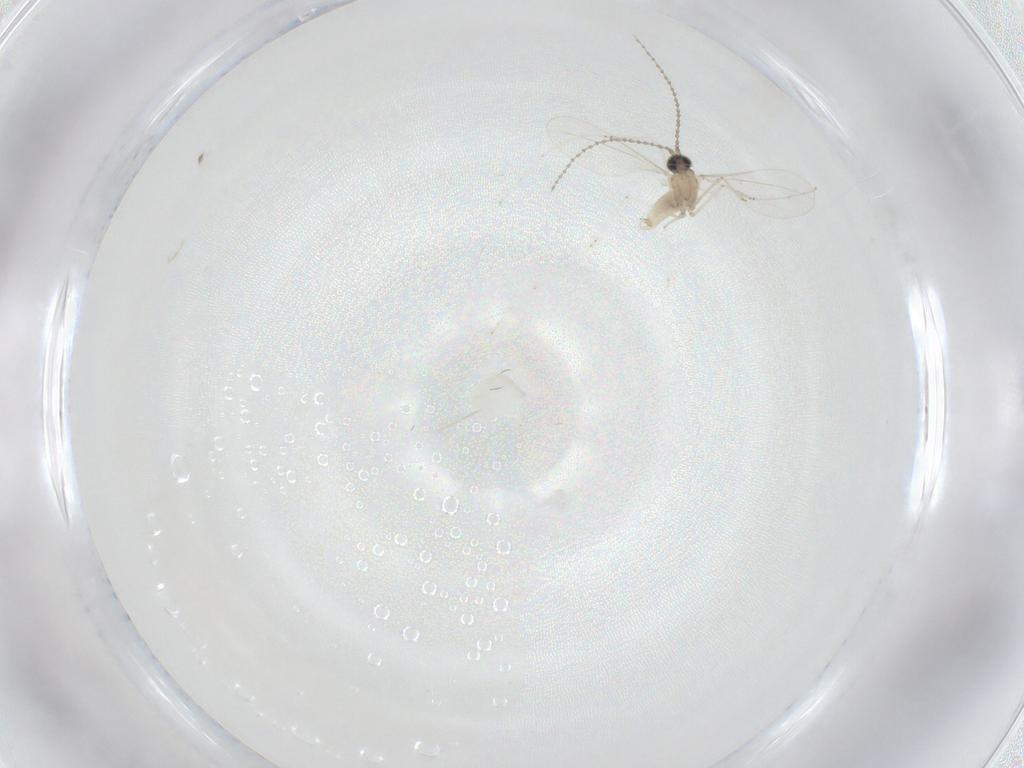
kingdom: Animalia
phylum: Arthropoda
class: Insecta
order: Diptera
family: Cecidomyiidae
